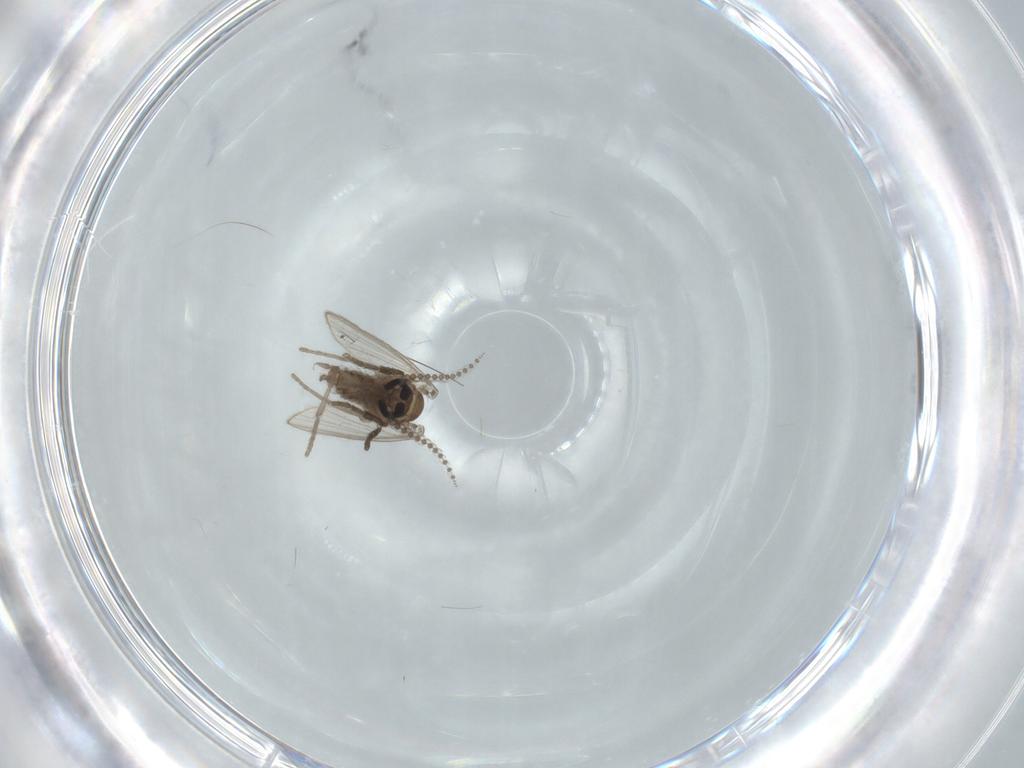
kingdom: Animalia
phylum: Arthropoda
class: Insecta
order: Diptera
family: Psychodidae
